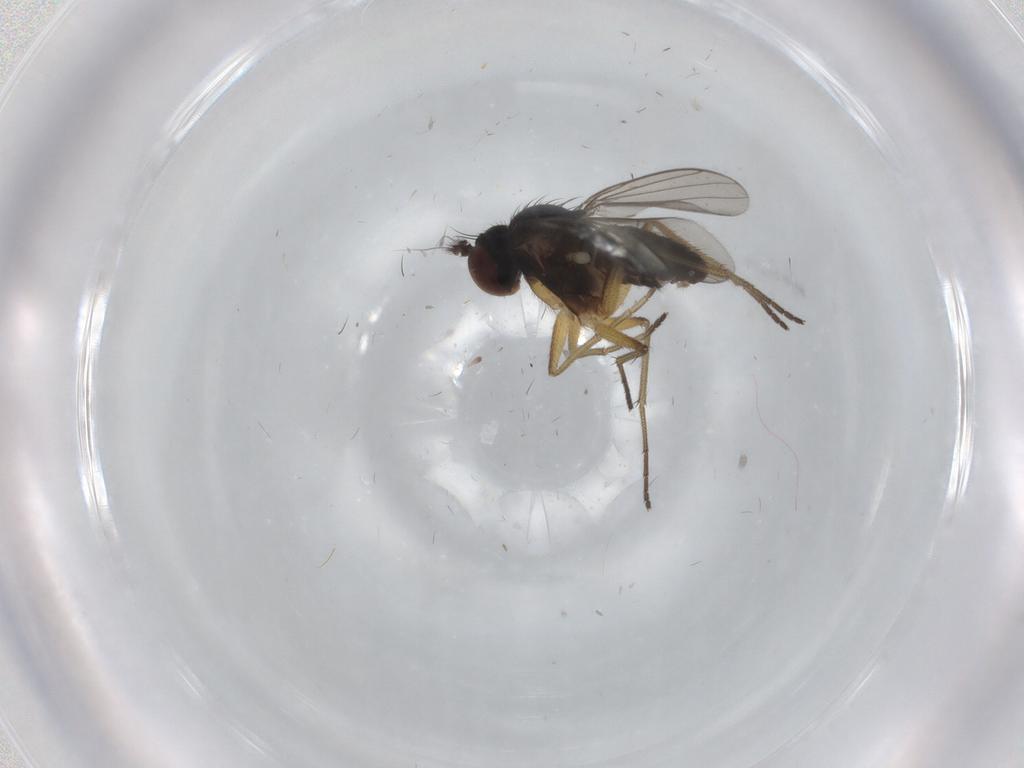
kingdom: Animalia
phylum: Arthropoda
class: Insecta
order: Diptera
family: Dolichopodidae
